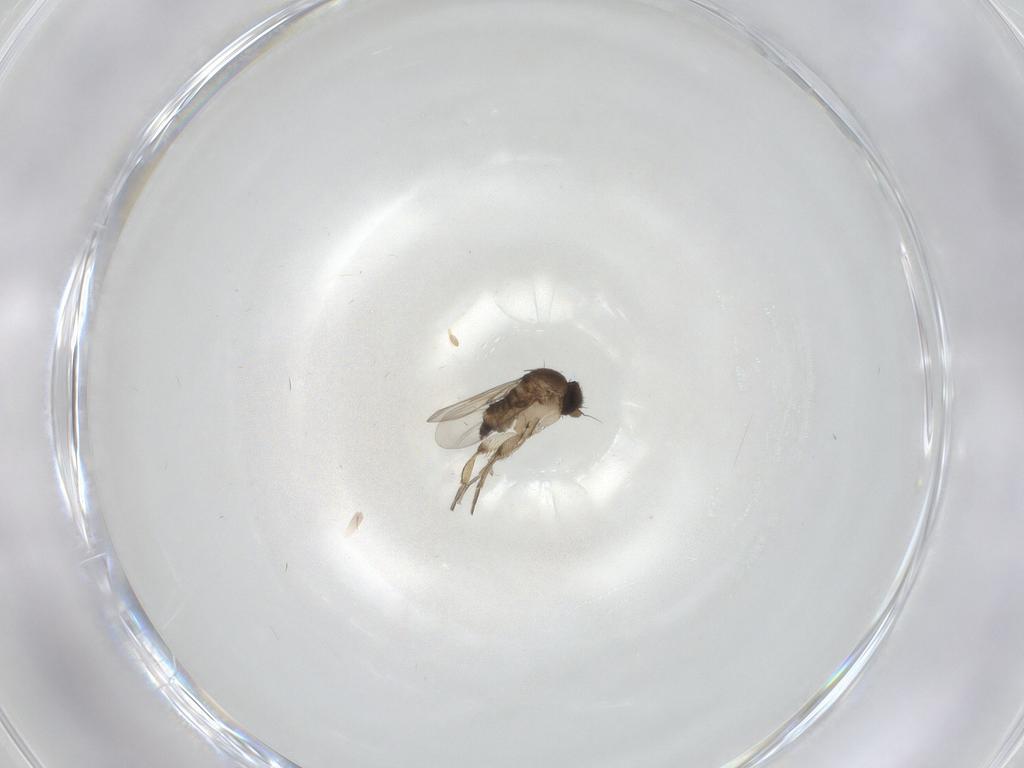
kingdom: Animalia
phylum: Arthropoda
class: Insecta
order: Diptera
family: Phoridae
